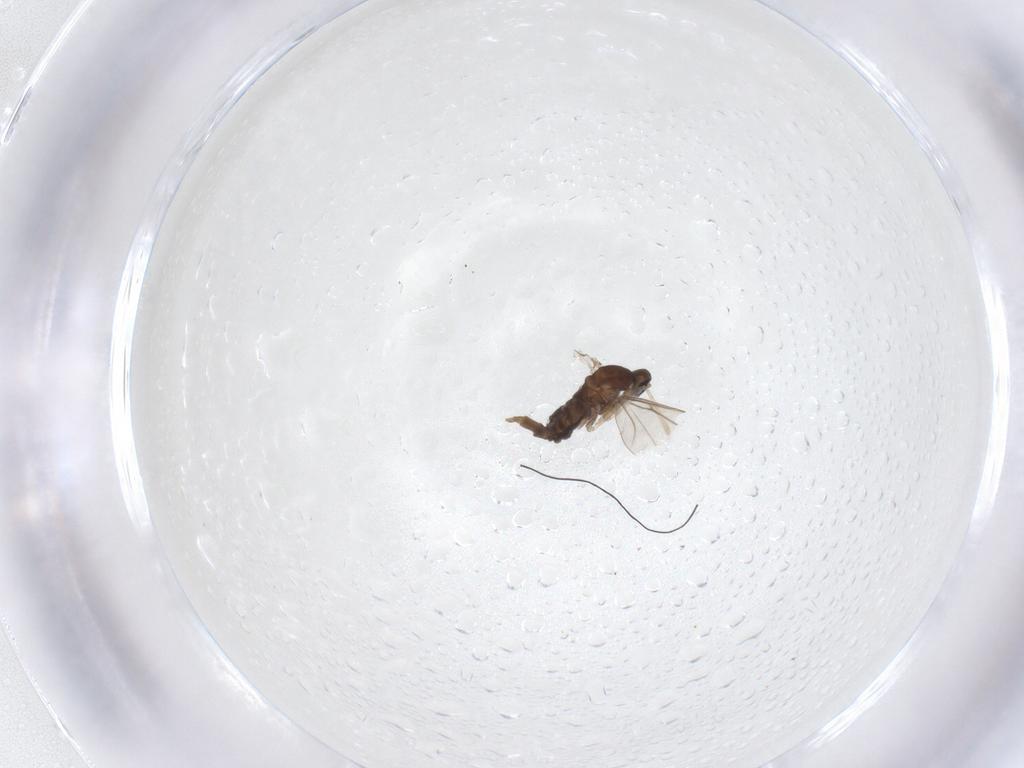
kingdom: Animalia
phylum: Arthropoda
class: Insecta
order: Diptera
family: Cecidomyiidae
